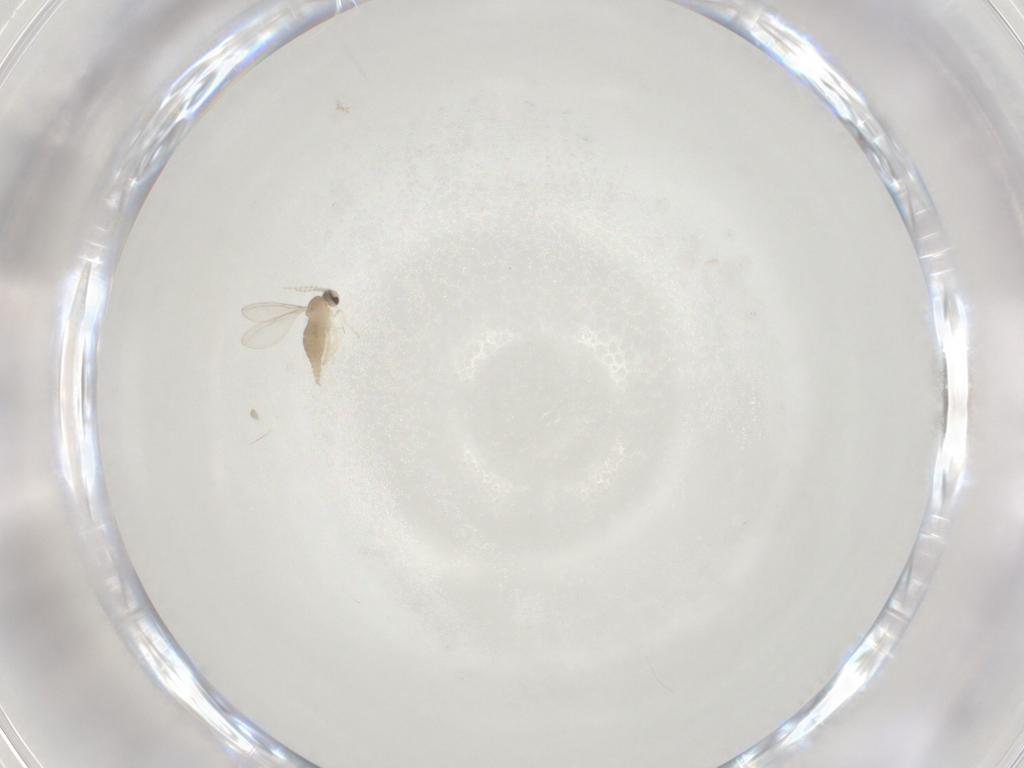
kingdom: Animalia
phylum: Arthropoda
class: Insecta
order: Diptera
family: Cecidomyiidae
